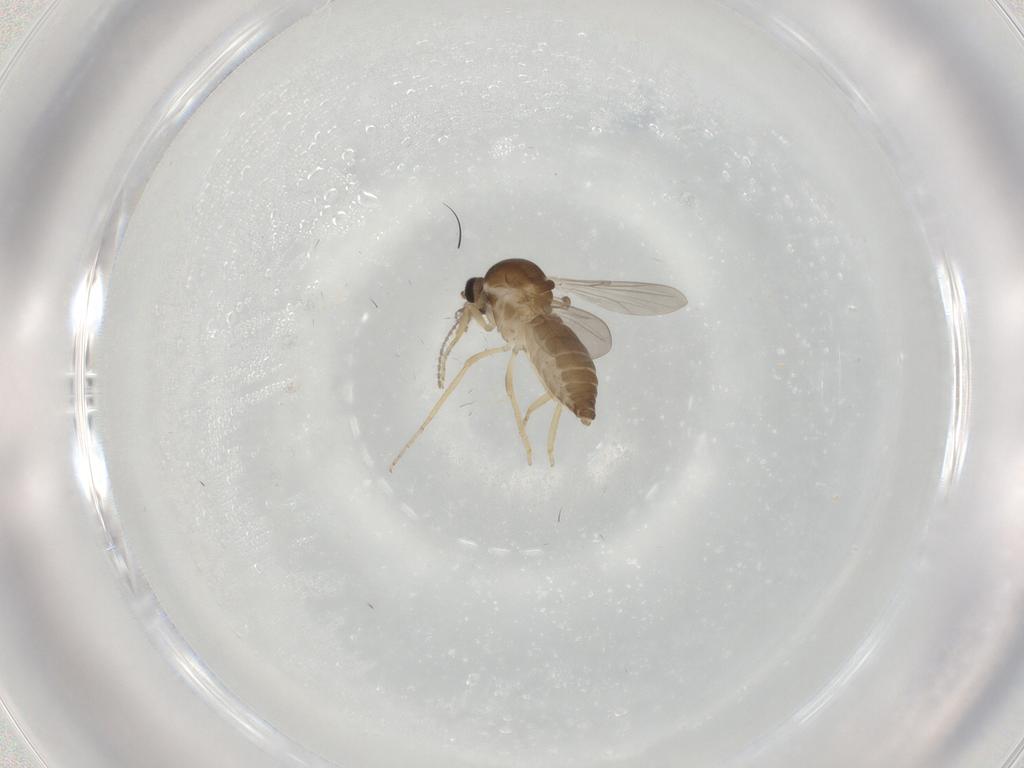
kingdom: Animalia
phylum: Arthropoda
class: Insecta
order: Diptera
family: Ceratopogonidae
